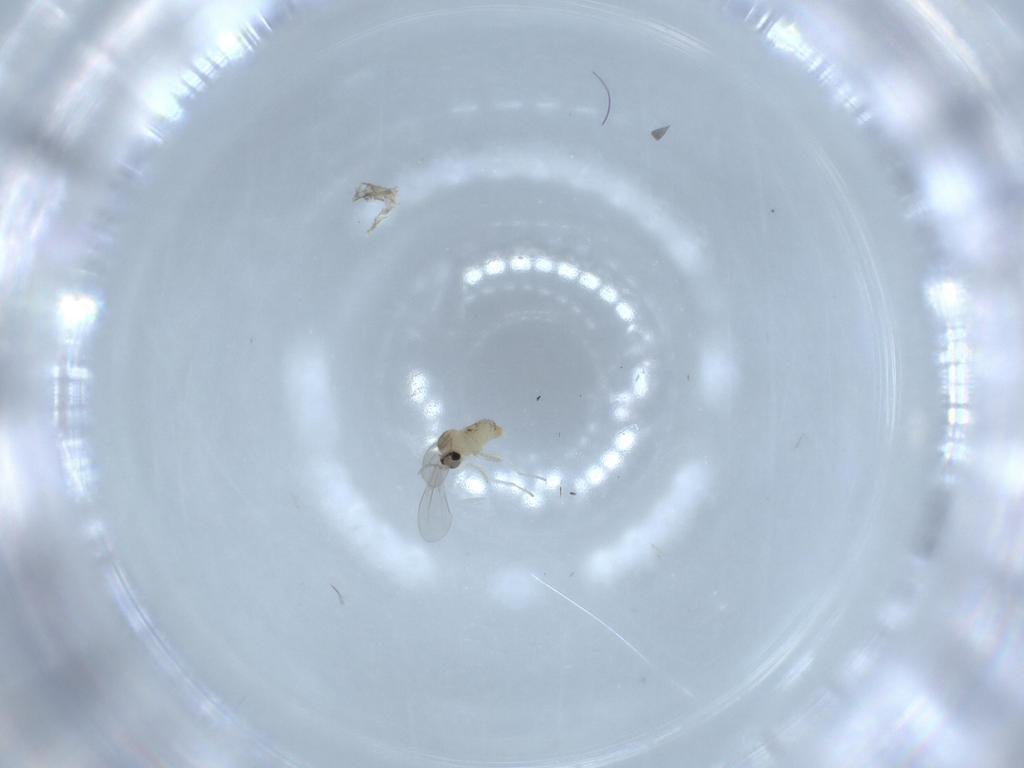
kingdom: Animalia
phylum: Arthropoda
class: Insecta
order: Diptera
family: Cecidomyiidae
